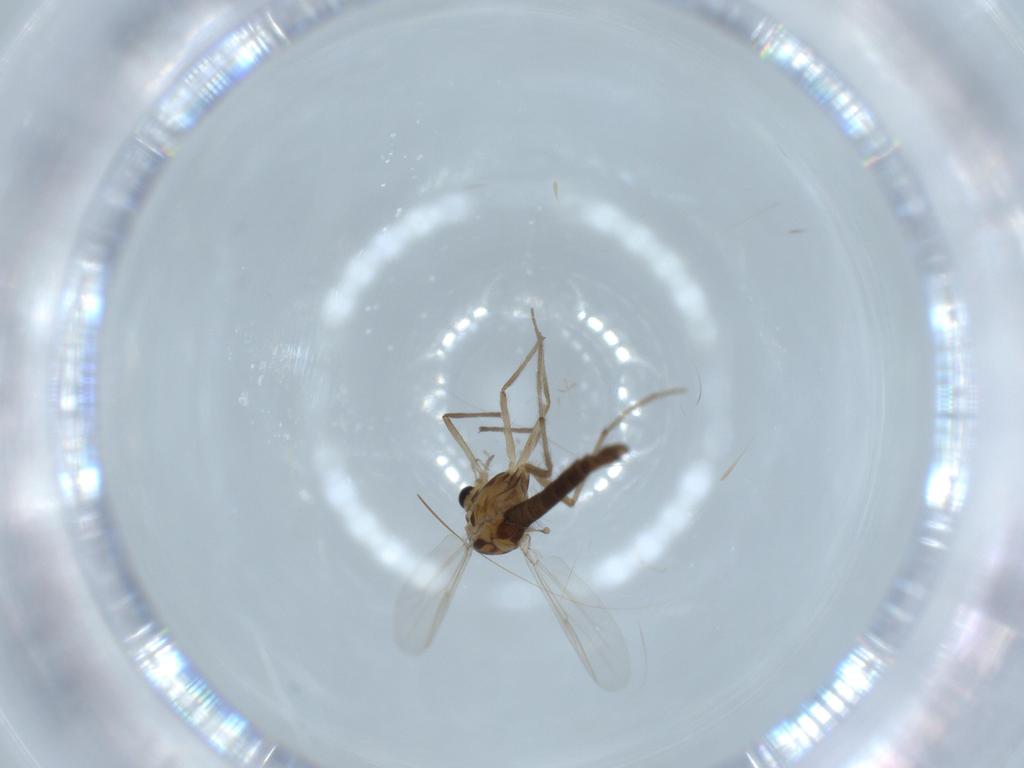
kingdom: Animalia
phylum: Arthropoda
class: Insecta
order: Diptera
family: Chironomidae
